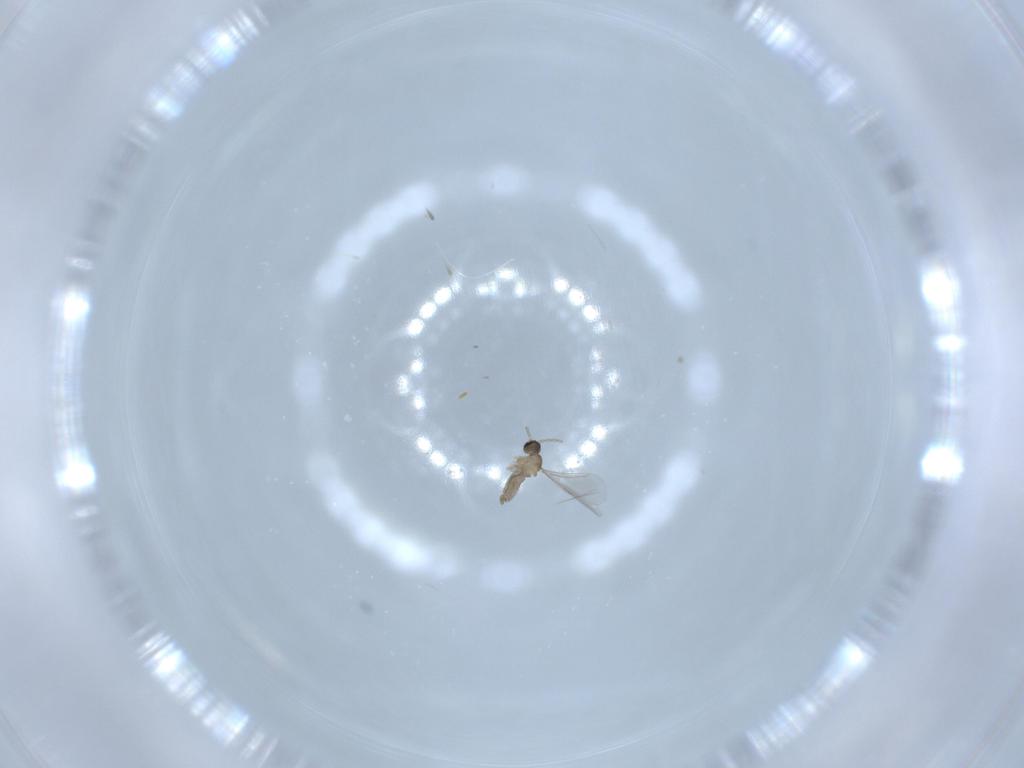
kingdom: Animalia
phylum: Arthropoda
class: Insecta
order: Diptera
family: Cecidomyiidae
